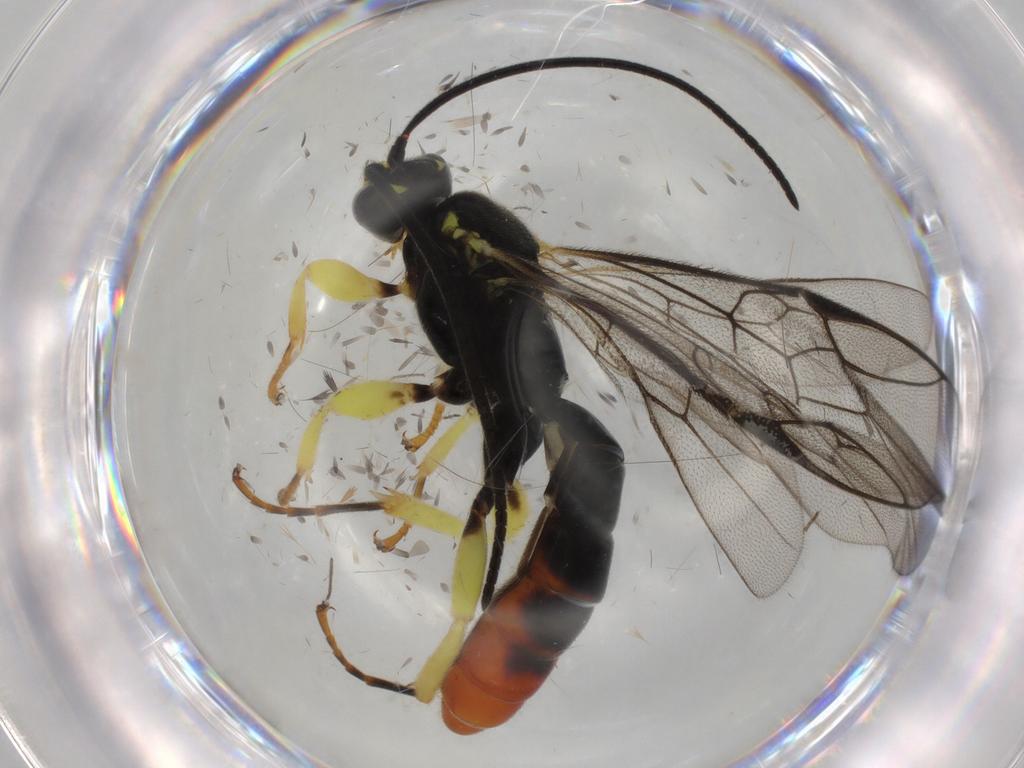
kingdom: Animalia
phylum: Arthropoda
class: Insecta
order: Hymenoptera
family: Ichneumonidae
